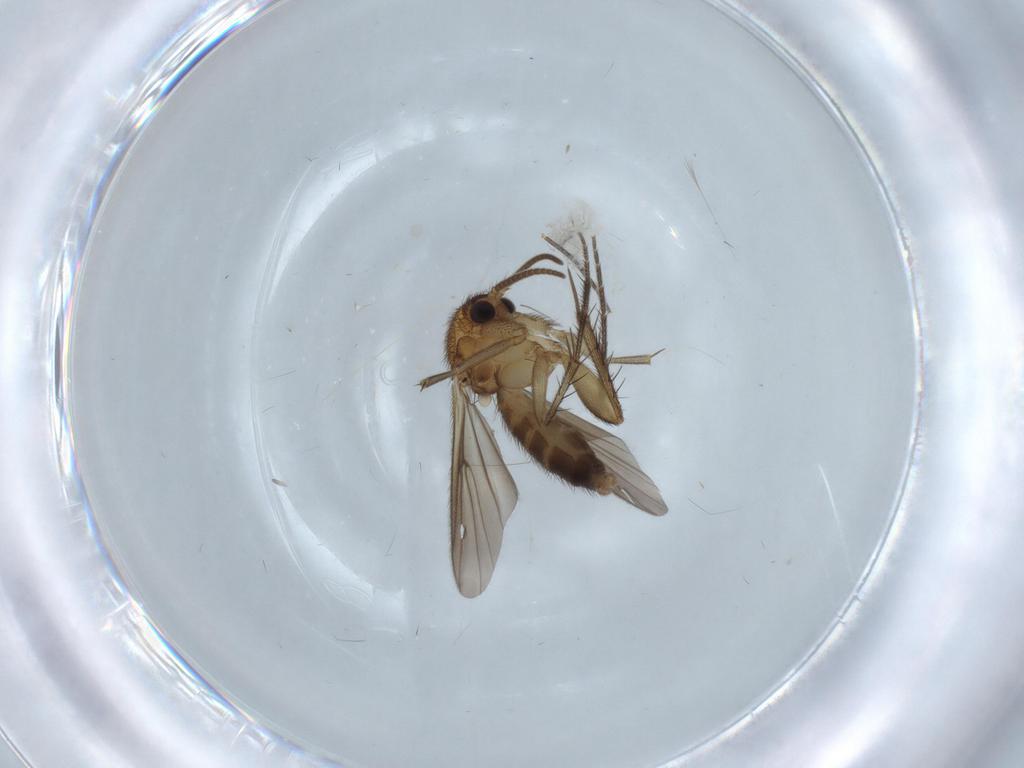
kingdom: Animalia
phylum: Arthropoda
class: Insecta
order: Diptera
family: Mycetophilidae
